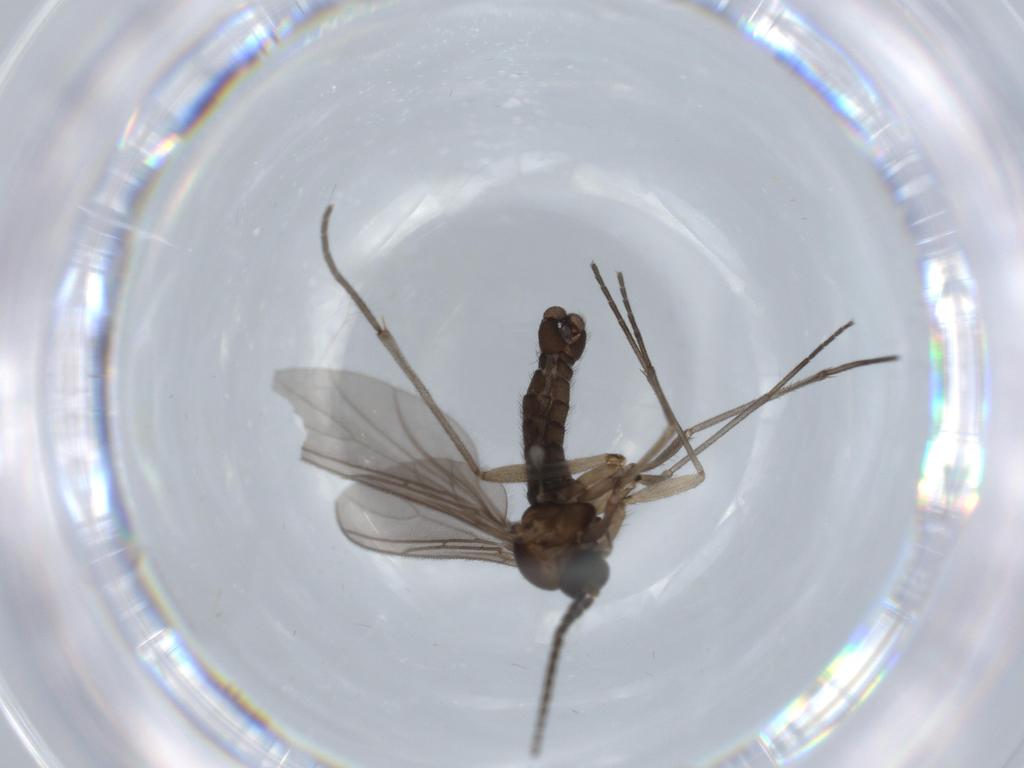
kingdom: Animalia
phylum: Arthropoda
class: Insecta
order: Diptera
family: Sciaridae
